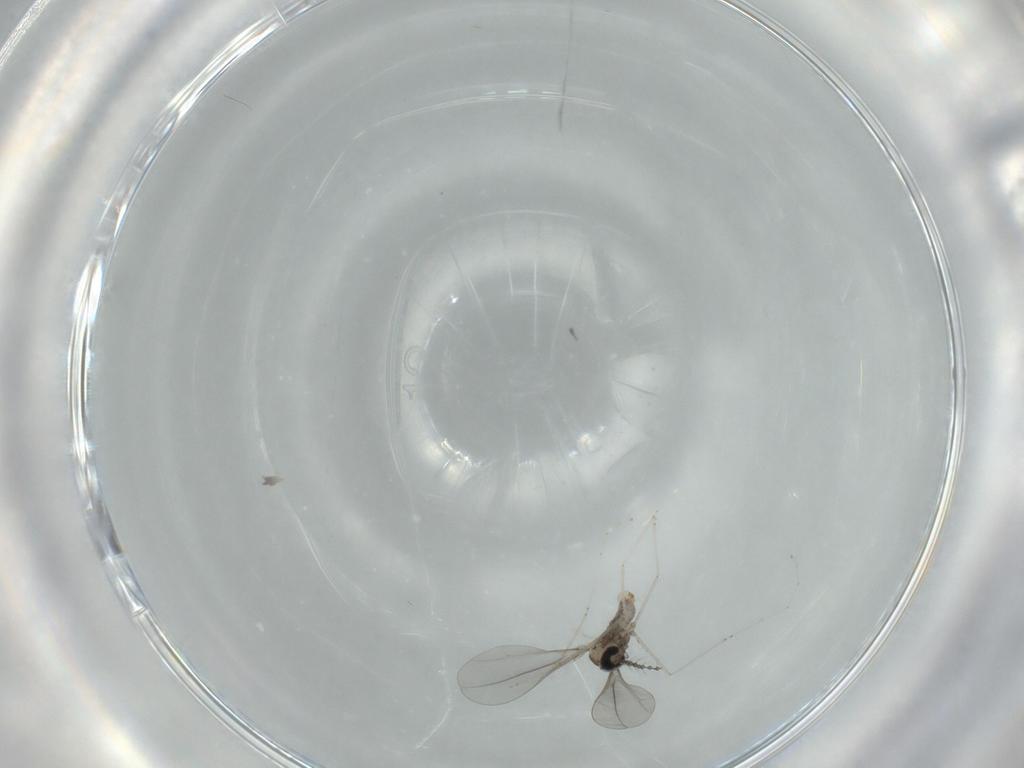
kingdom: Animalia
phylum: Arthropoda
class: Insecta
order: Diptera
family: Cecidomyiidae
